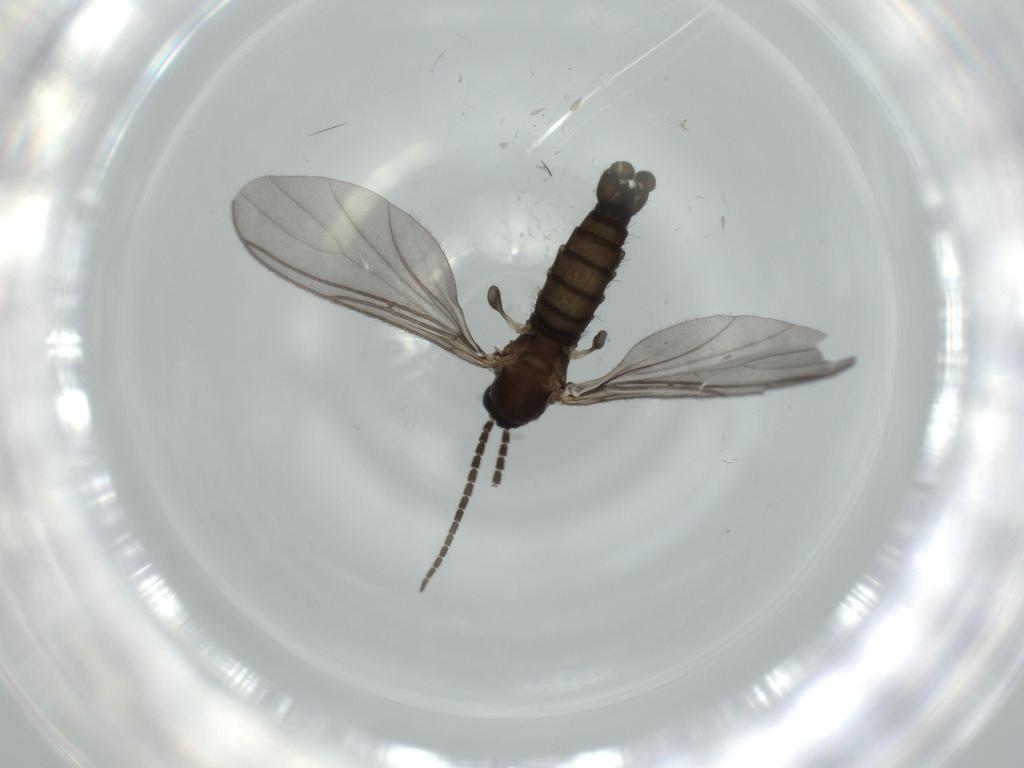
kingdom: Animalia
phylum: Arthropoda
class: Insecta
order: Diptera
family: Sciaridae
